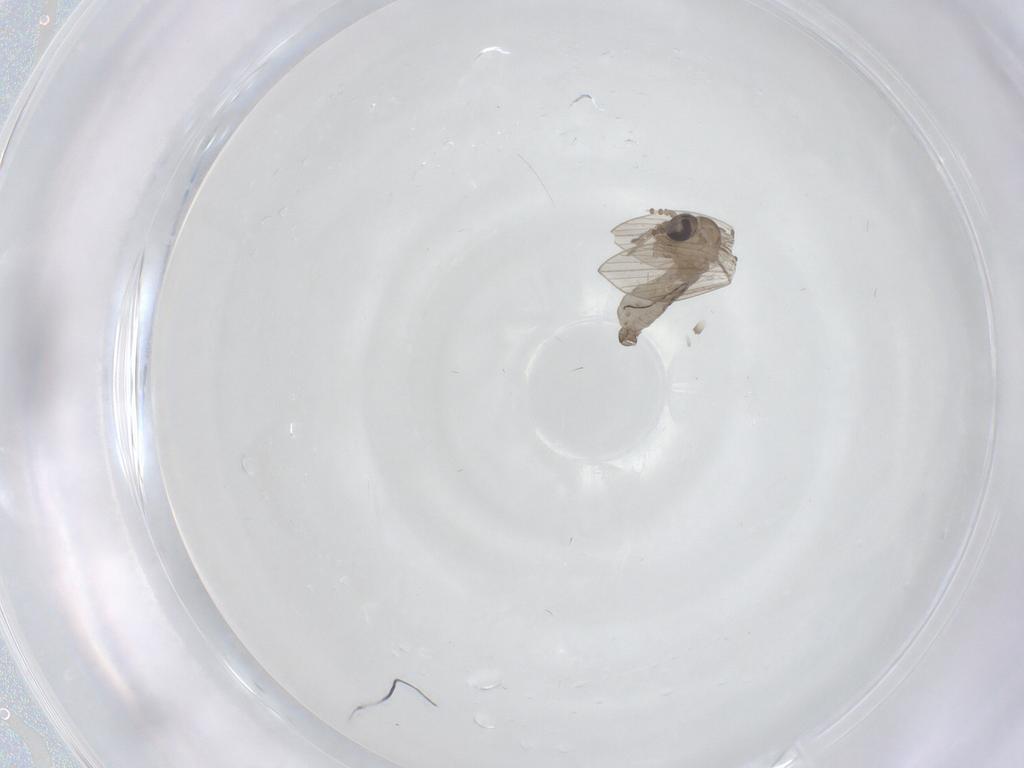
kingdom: Animalia
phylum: Arthropoda
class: Insecta
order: Diptera
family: Psychodidae
